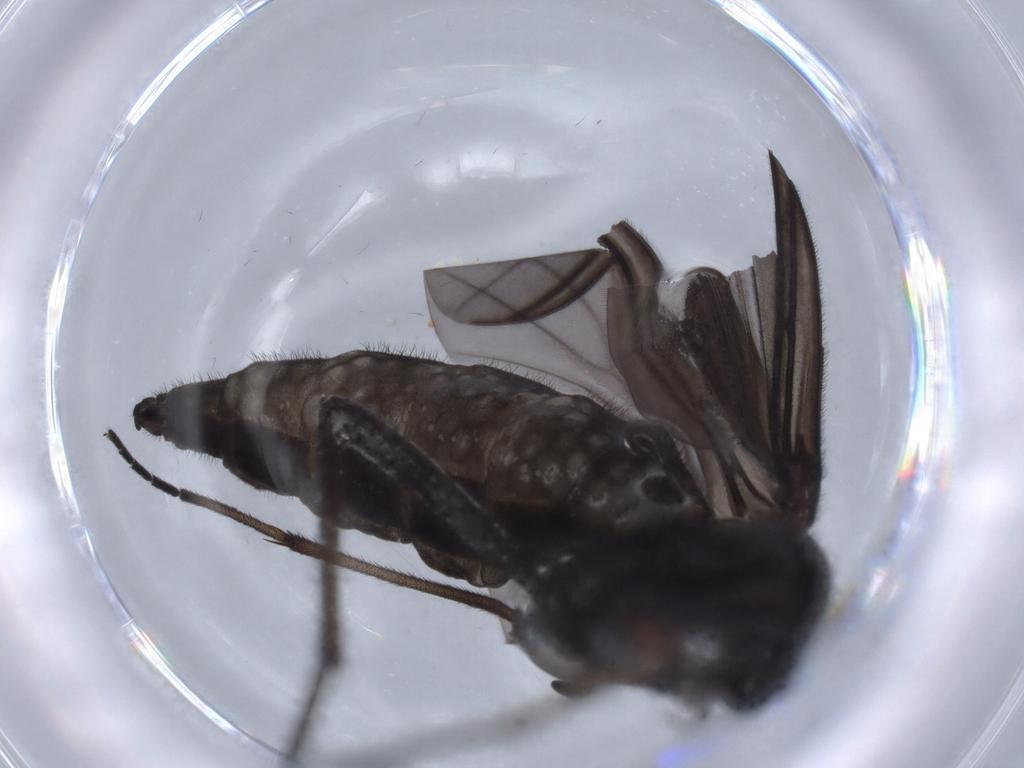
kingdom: Animalia
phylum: Arthropoda
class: Insecta
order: Diptera
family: Sciaridae
